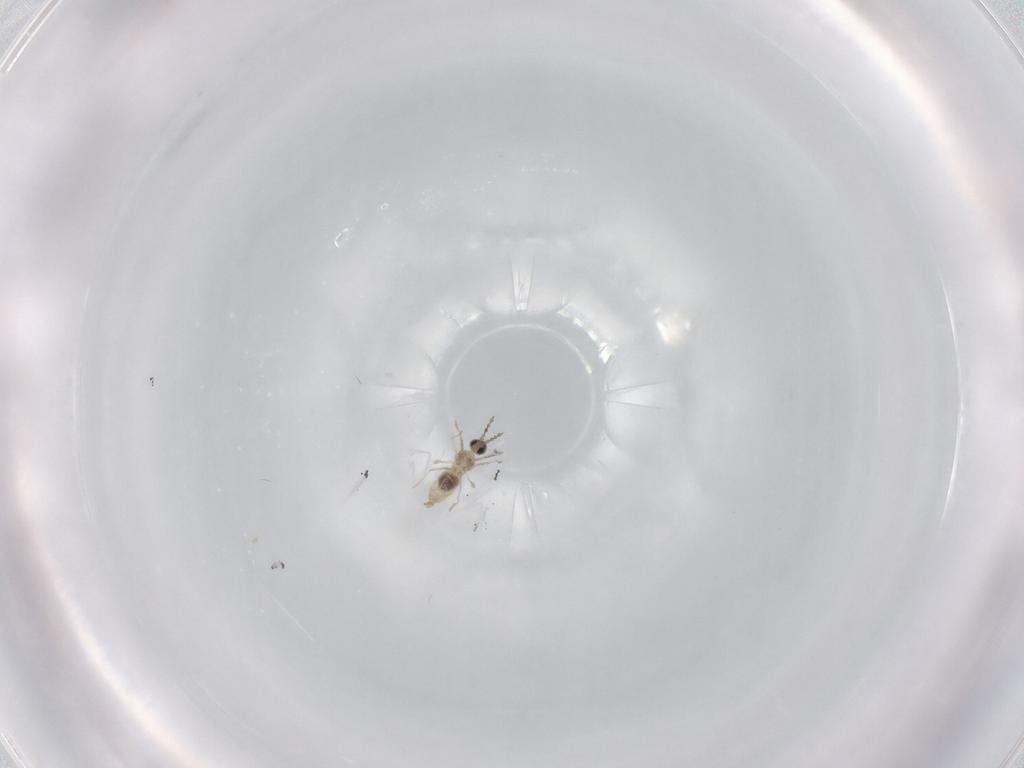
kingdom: Animalia
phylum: Arthropoda
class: Insecta
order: Diptera
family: Cecidomyiidae
